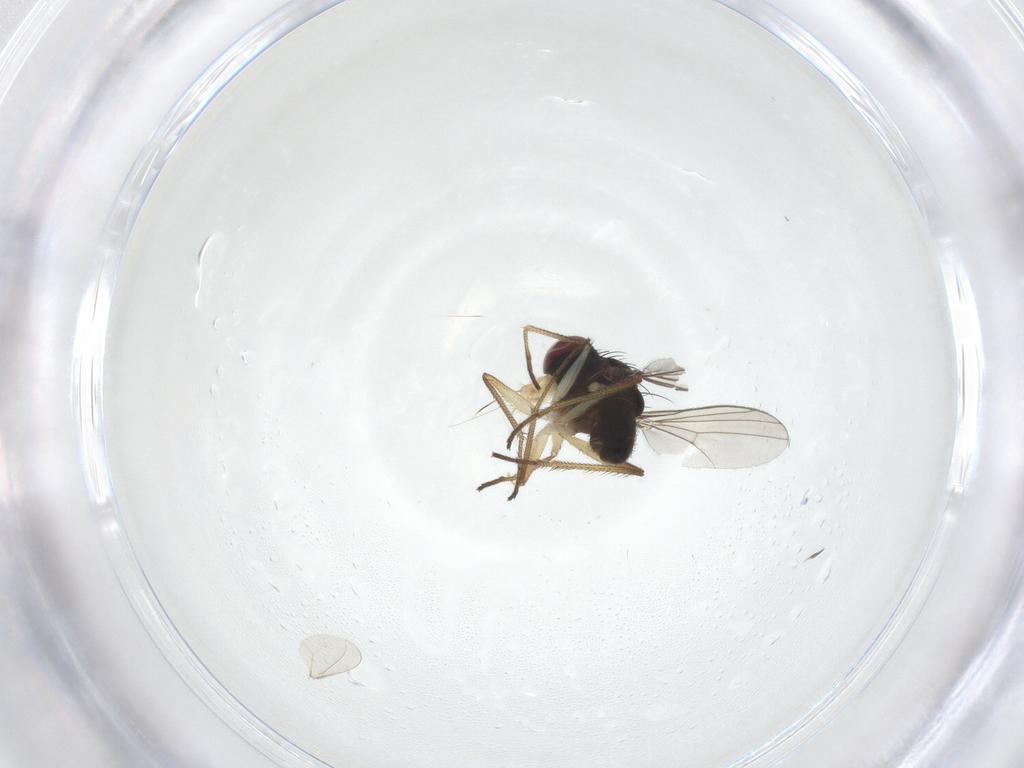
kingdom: Animalia
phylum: Arthropoda
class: Insecta
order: Diptera
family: Dolichopodidae
